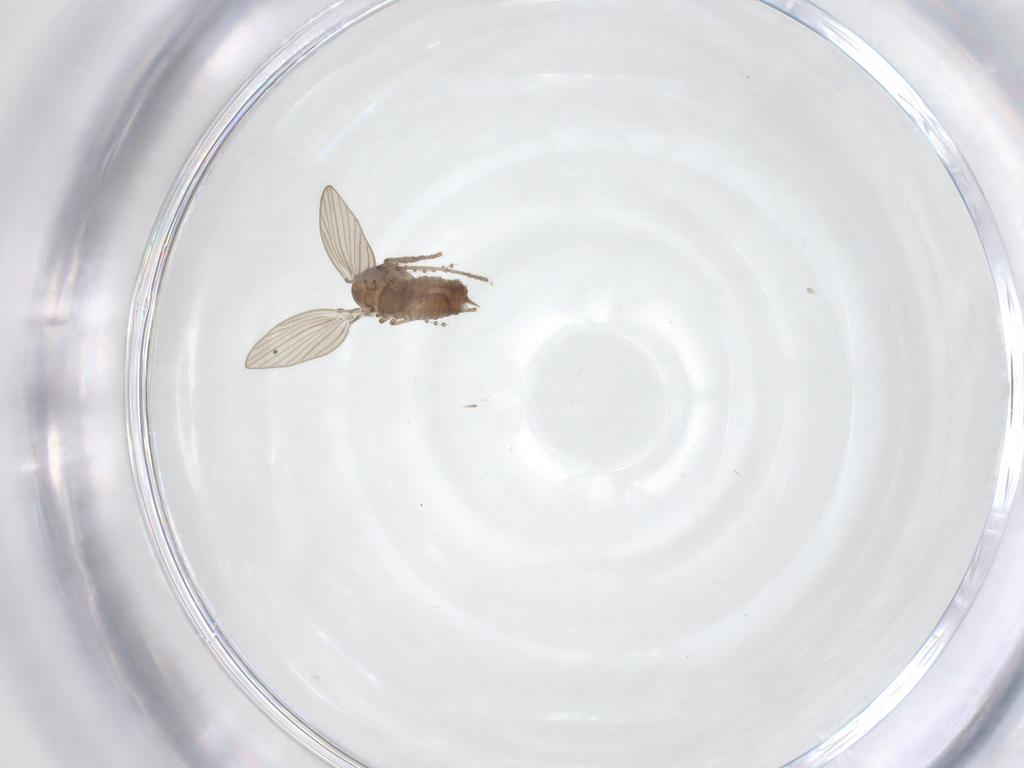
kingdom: Animalia
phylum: Arthropoda
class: Insecta
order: Diptera
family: Psychodidae
